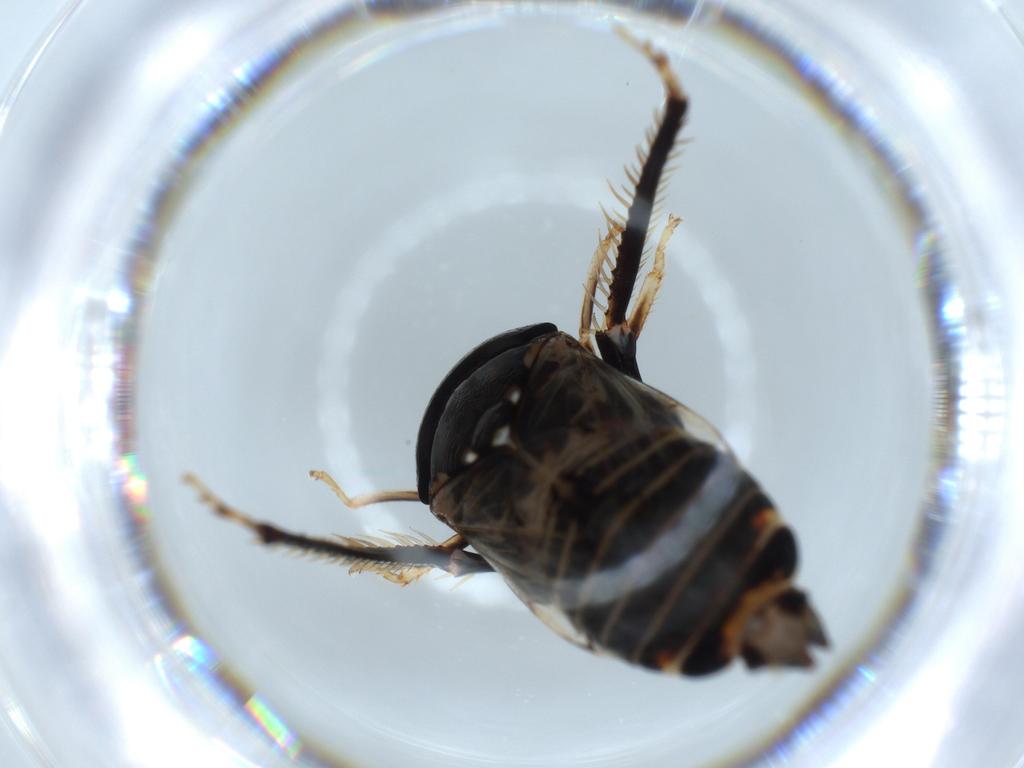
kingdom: Animalia
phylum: Arthropoda
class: Insecta
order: Hemiptera
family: Cicadellidae
